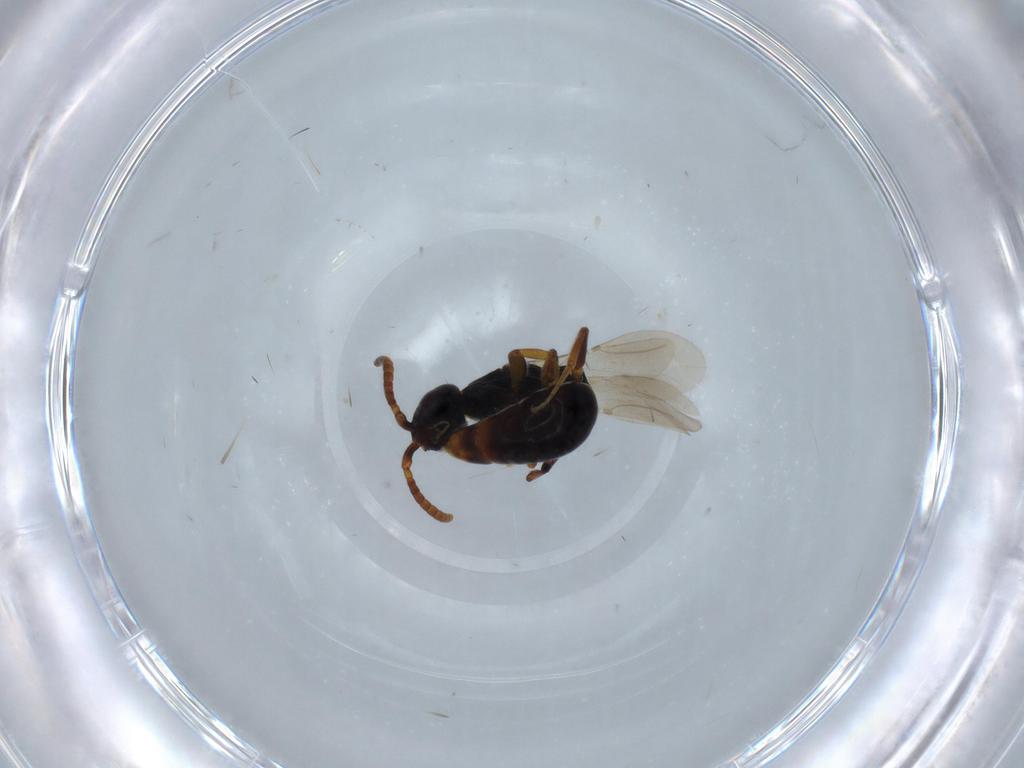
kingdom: Animalia
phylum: Arthropoda
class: Insecta
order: Hymenoptera
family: Bethylidae
